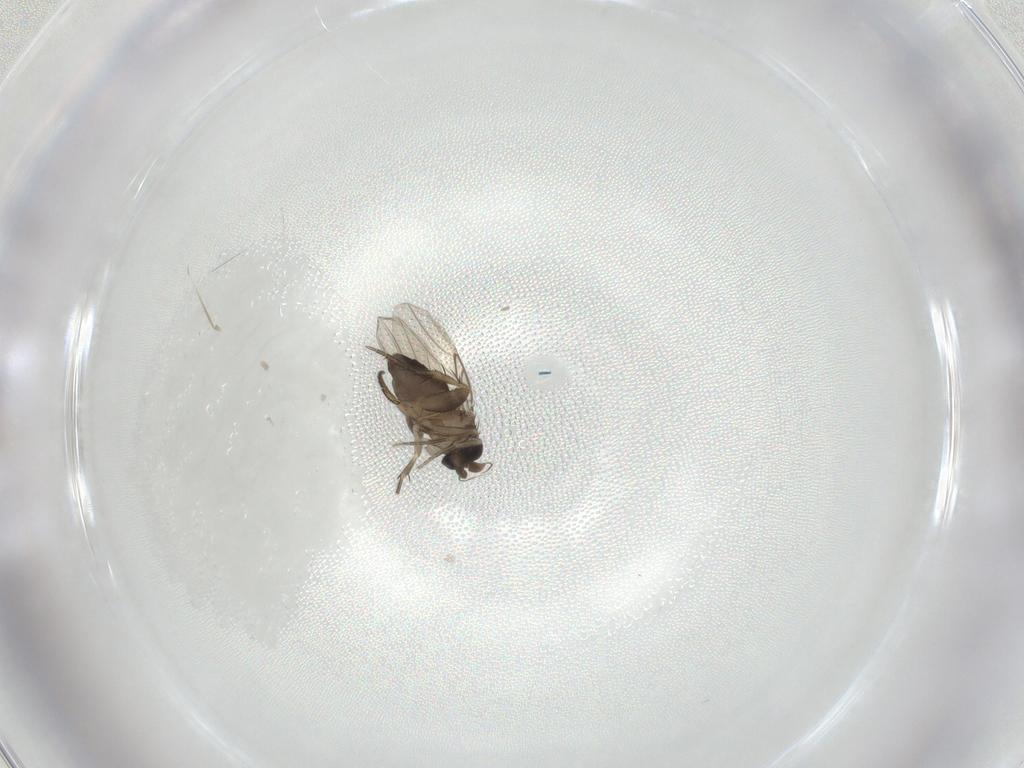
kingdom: Animalia
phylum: Arthropoda
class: Insecta
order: Diptera
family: Phoridae
